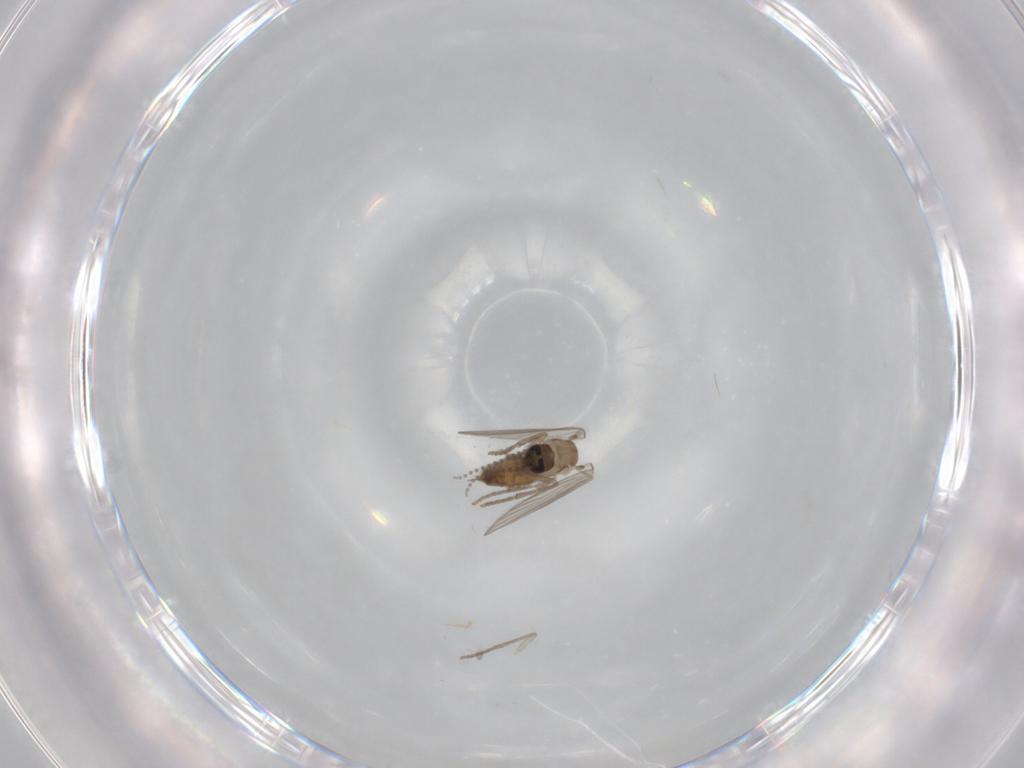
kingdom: Animalia
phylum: Arthropoda
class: Insecta
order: Diptera
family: Psychodidae
